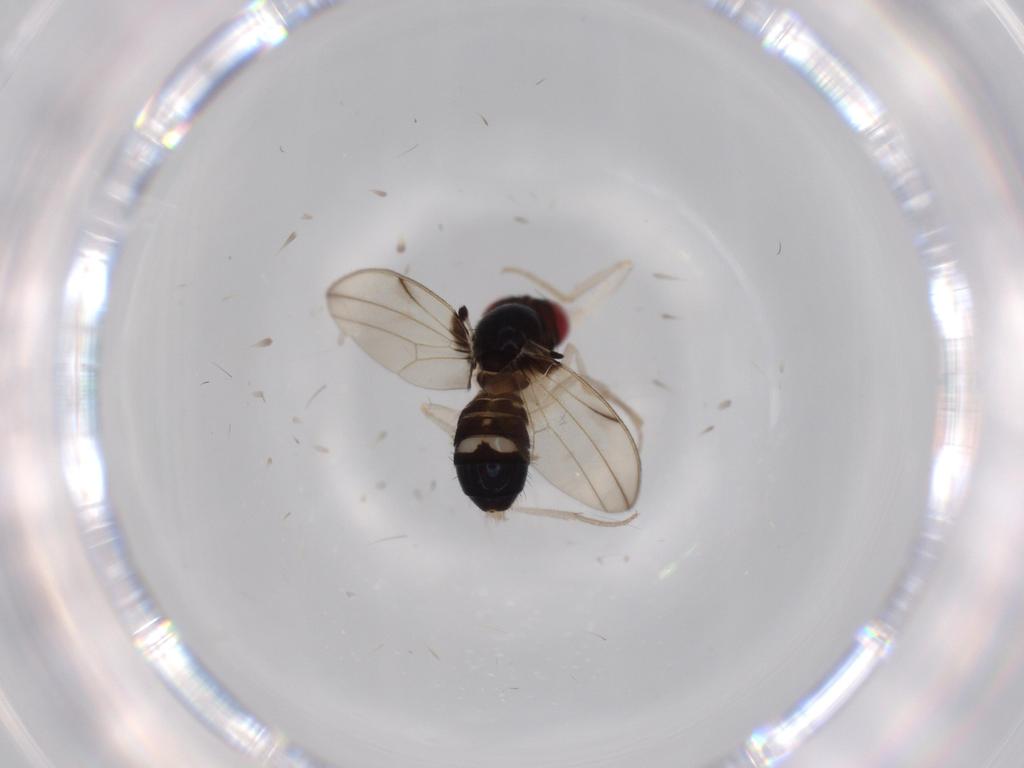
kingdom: Animalia
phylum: Arthropoda
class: Insecta
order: Diptera
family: Drosophilidae
